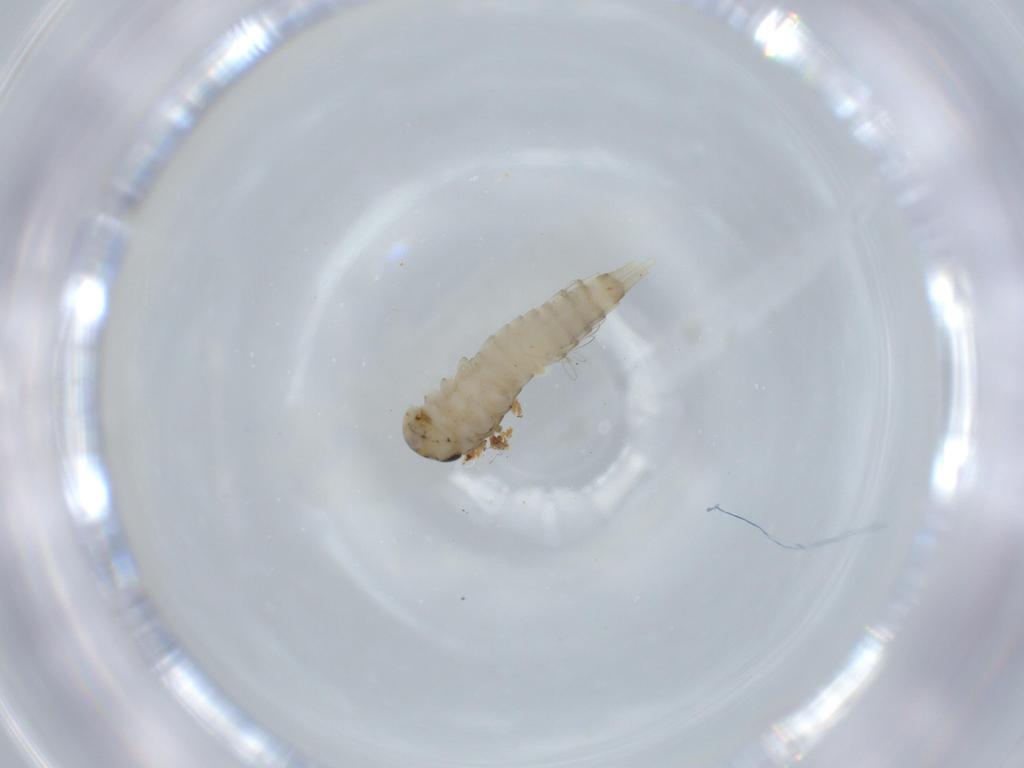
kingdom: Animalia
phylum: Arthropoda
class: Insecta
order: Ephemeroptera
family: Baetidae
